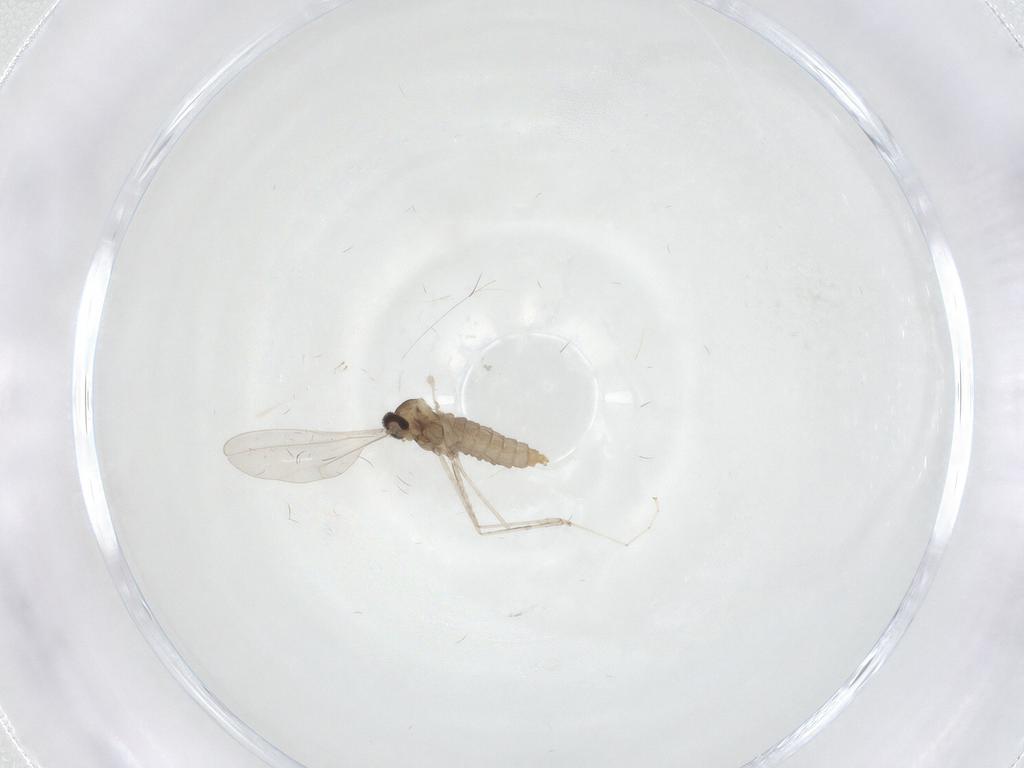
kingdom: Animalia
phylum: Arthropoda
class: Insecta
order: Diptera
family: Cecidomyiidae
